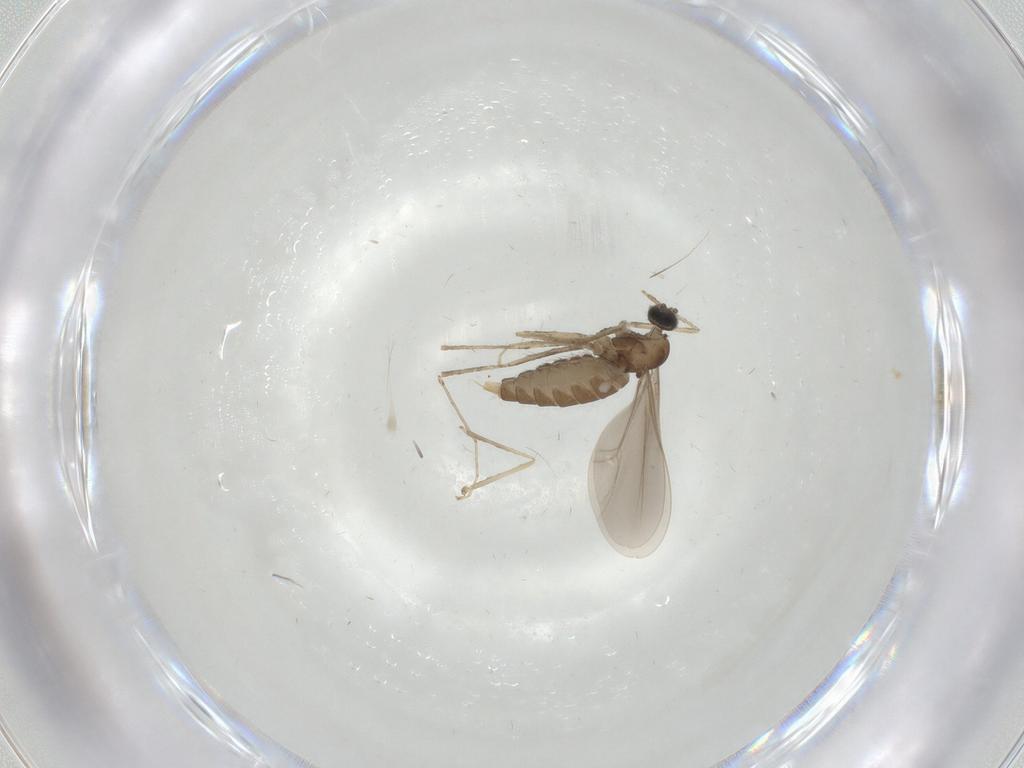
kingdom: Animalia
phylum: Arthropoda
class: Insecta
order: Diptera
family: Cecidomyiidae
